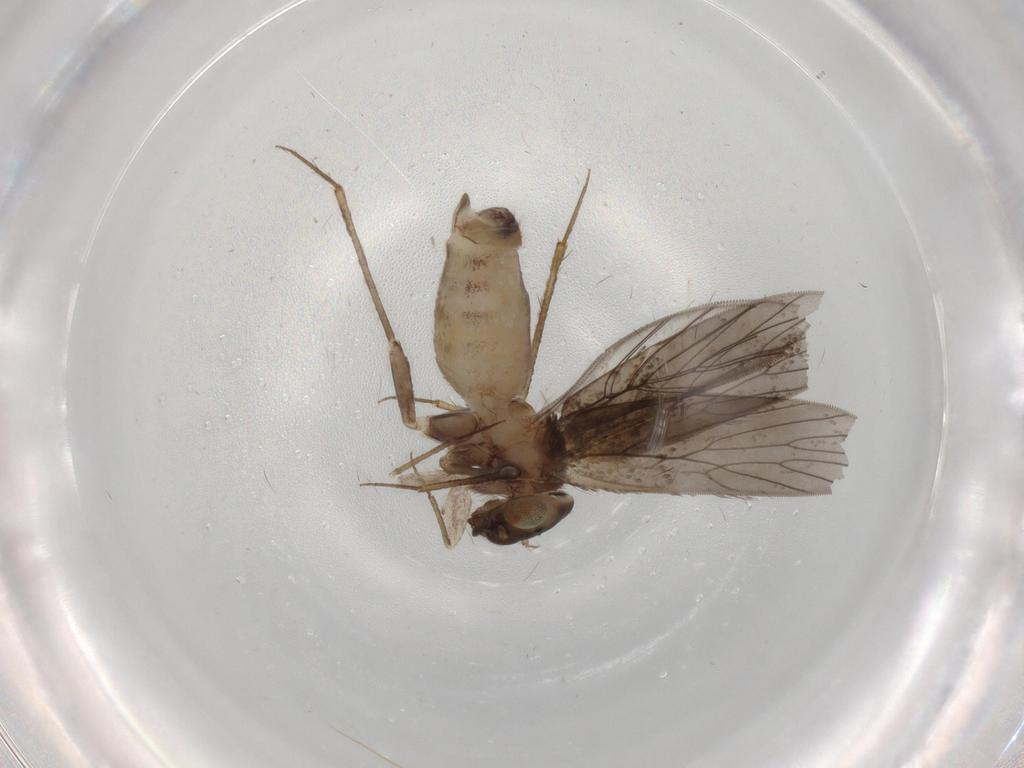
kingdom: Animalia
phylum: Arthropoda
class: Insecta
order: Psocodea
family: Lepidopsocidae
